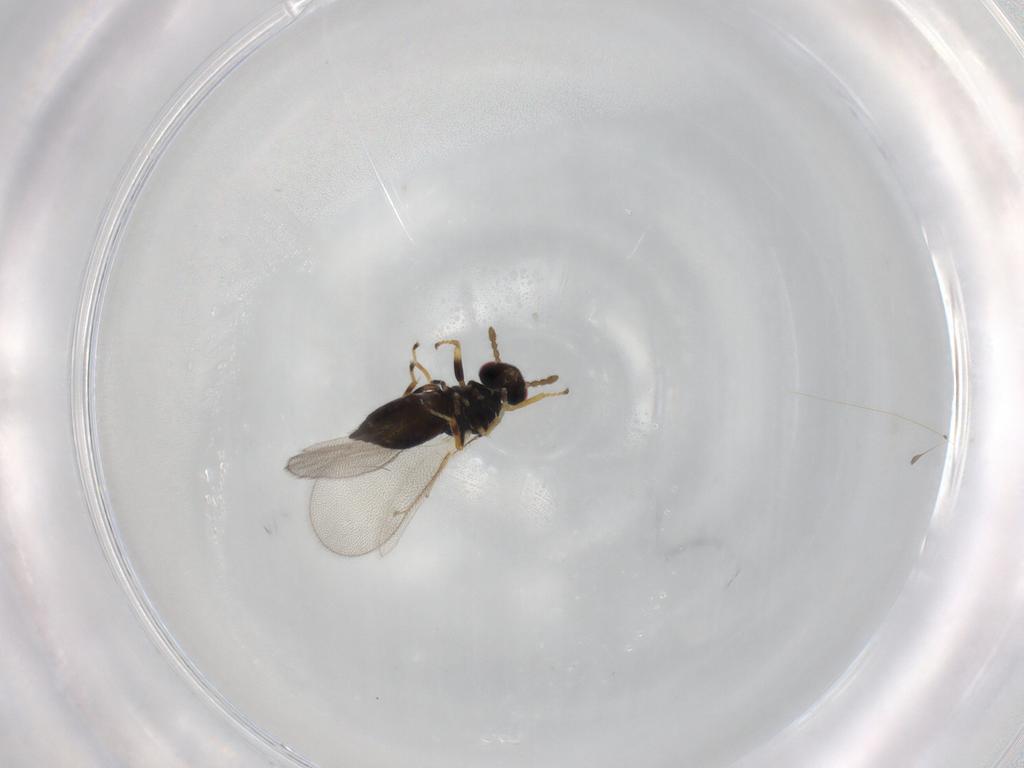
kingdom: Animalia
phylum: Arthropoda
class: Insecta
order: Hymenoptera
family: Eulophidae
